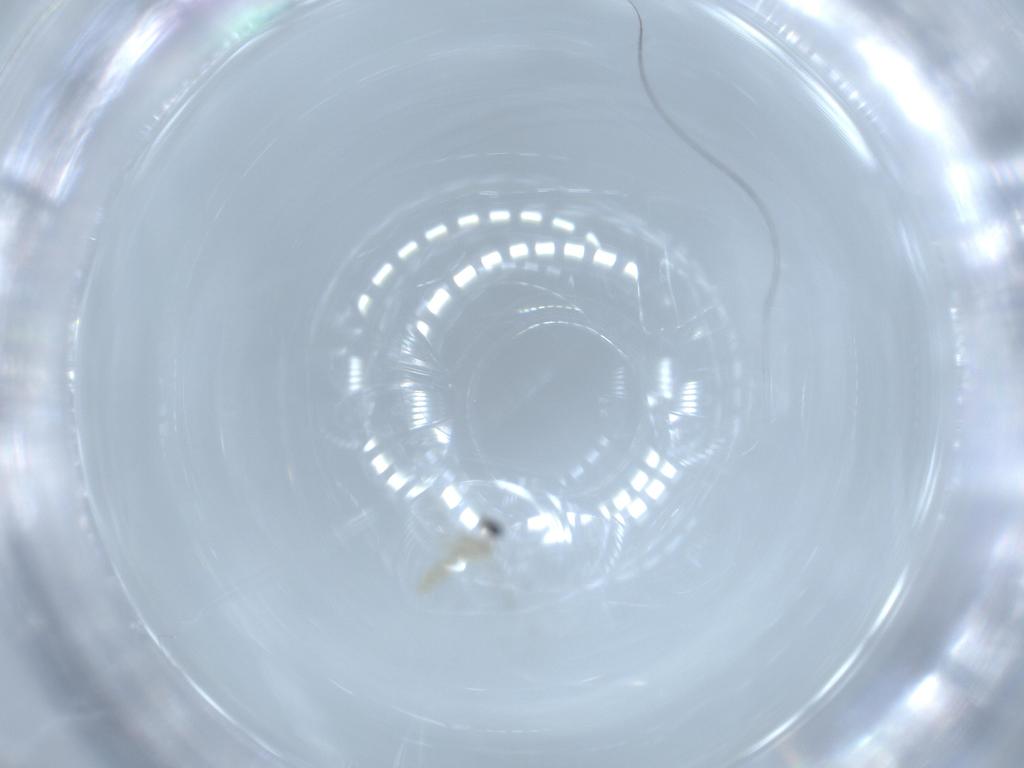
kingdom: Animalia
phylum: Arthropoda
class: Insecta
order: Diptera
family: Cecidomyiidae
